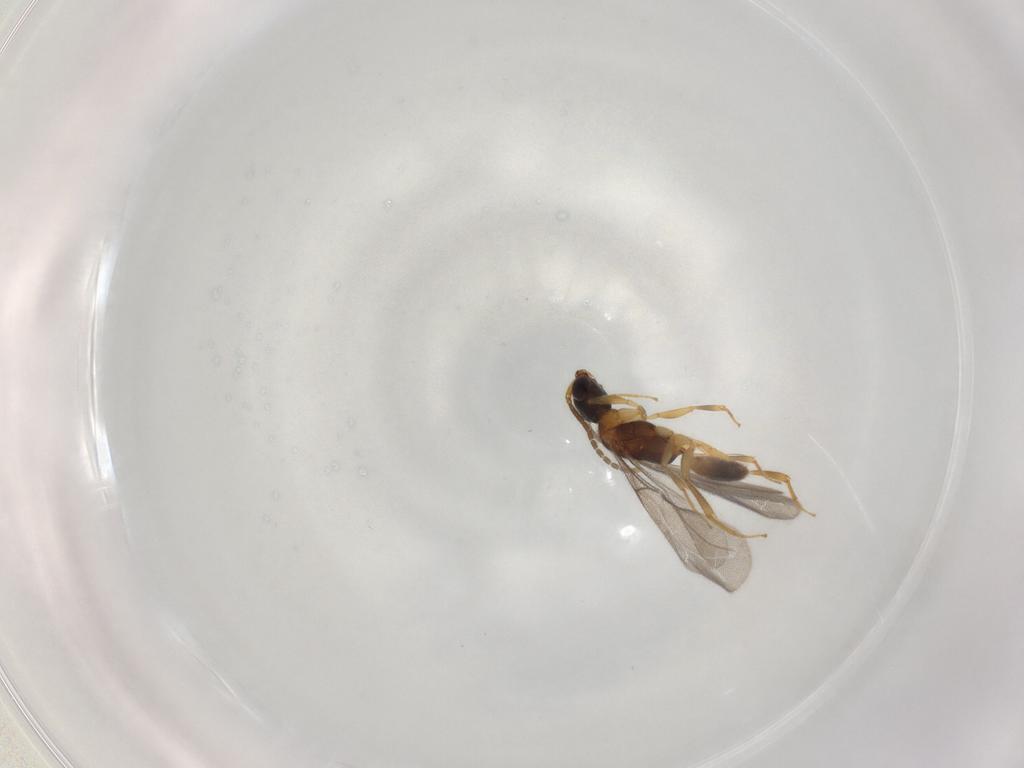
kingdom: Animalia
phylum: Arthropoda
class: Insecta
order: Hymenoptera
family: Bethylidae
